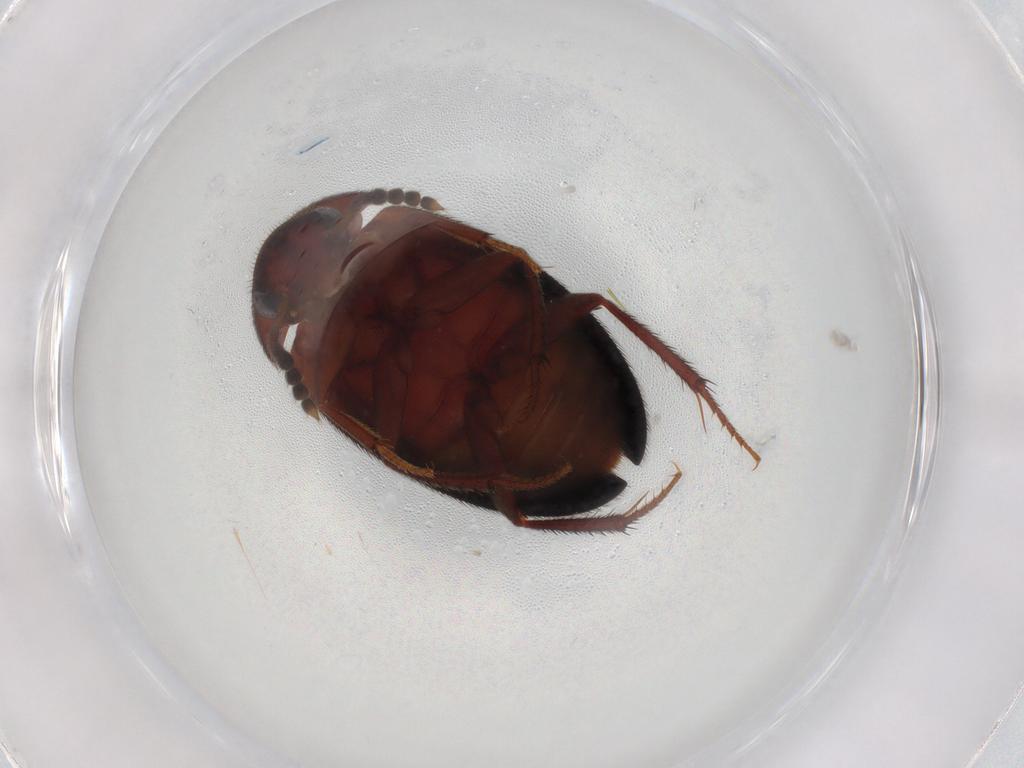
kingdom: Animalia
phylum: Arthropoda
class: Insecta
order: Coleoptera
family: Leiodidae
